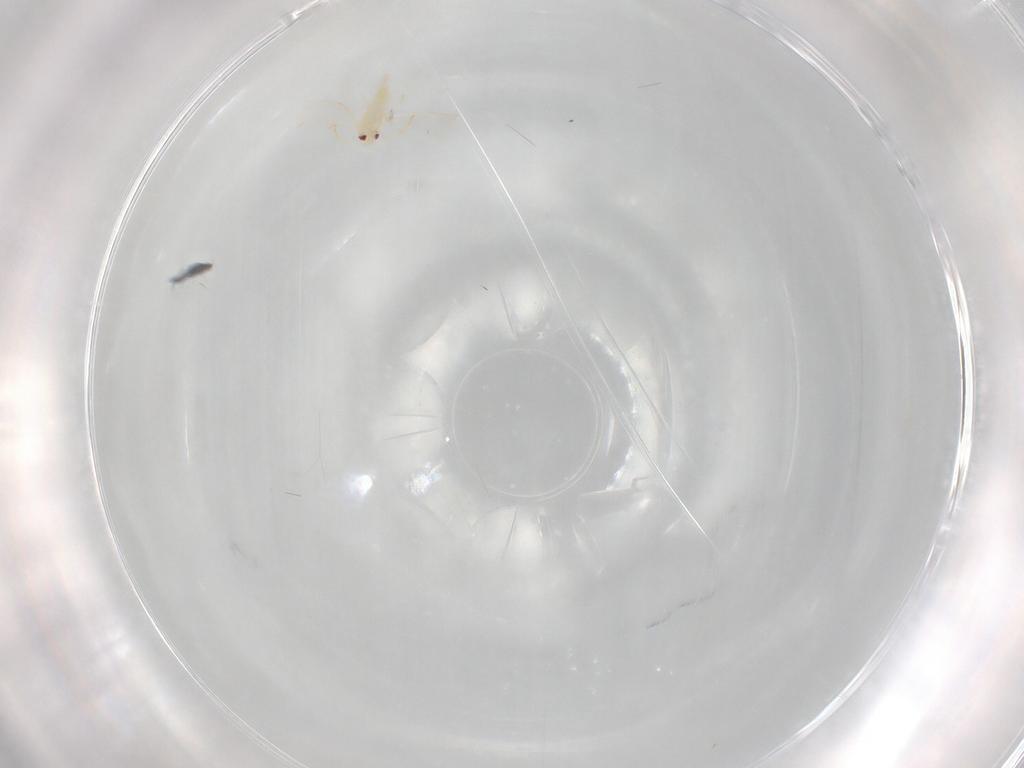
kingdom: Animalia
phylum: Arthropoda
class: Insecta
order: Hemiptera
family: Aleyrodidae
